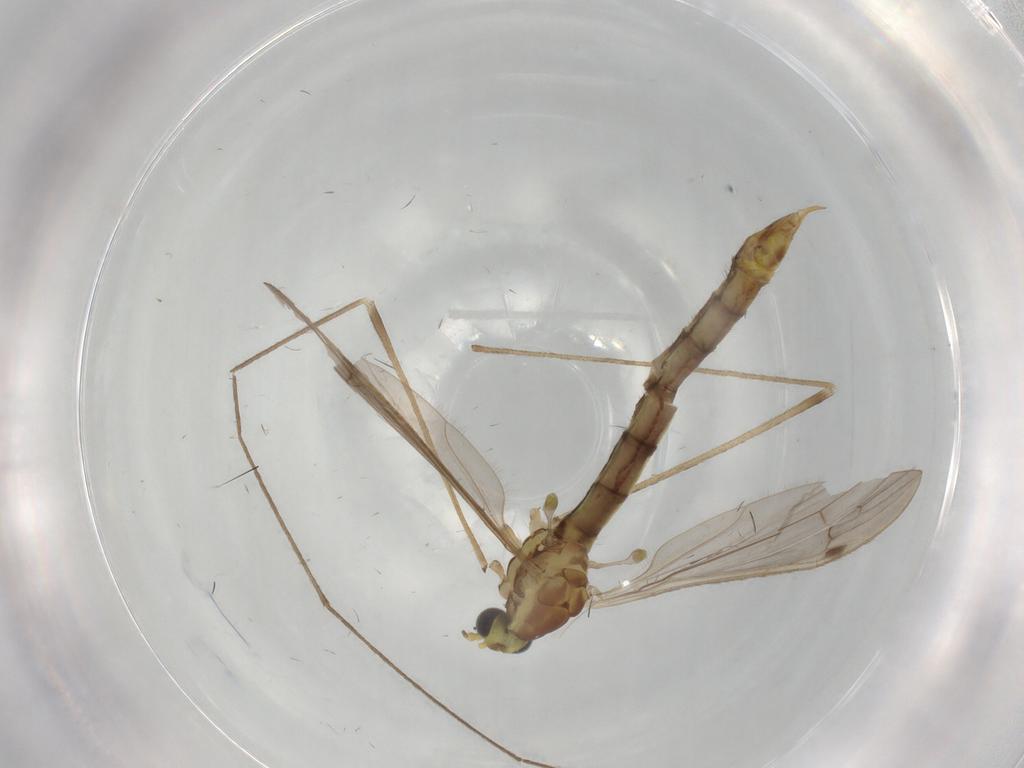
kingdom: Animalia
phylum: Arthropoda
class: Insecta
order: Diptera
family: Limoniidae
